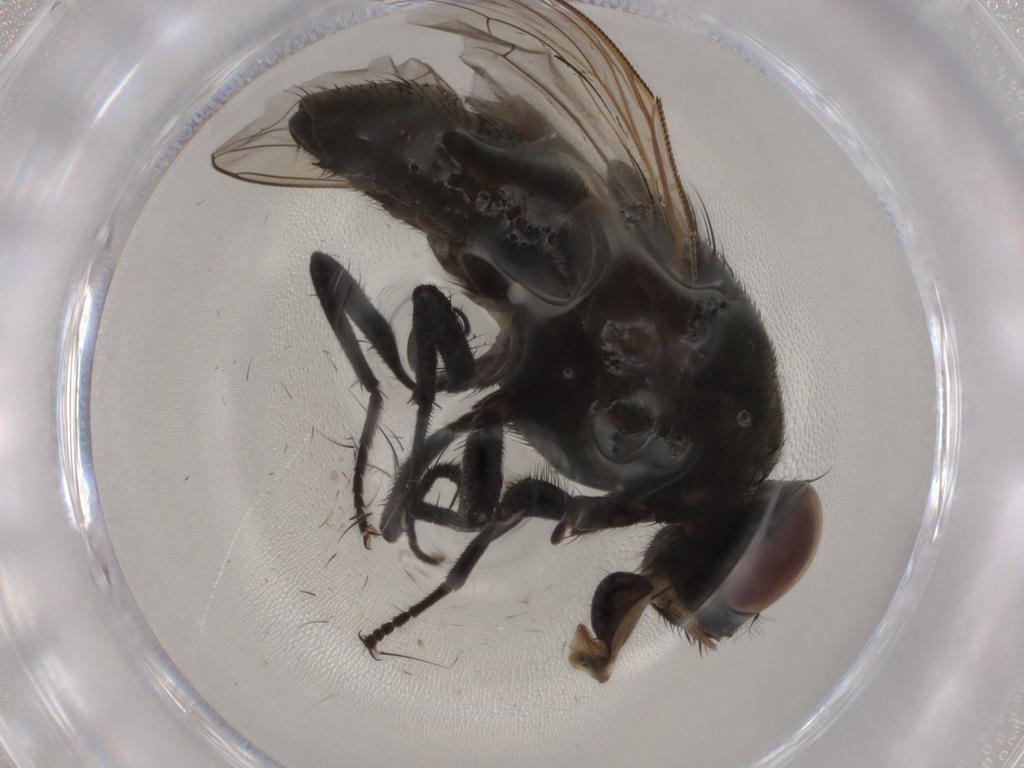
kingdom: Animalia
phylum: Arthropoda
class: Insecta
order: Diptera
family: Muscidae
